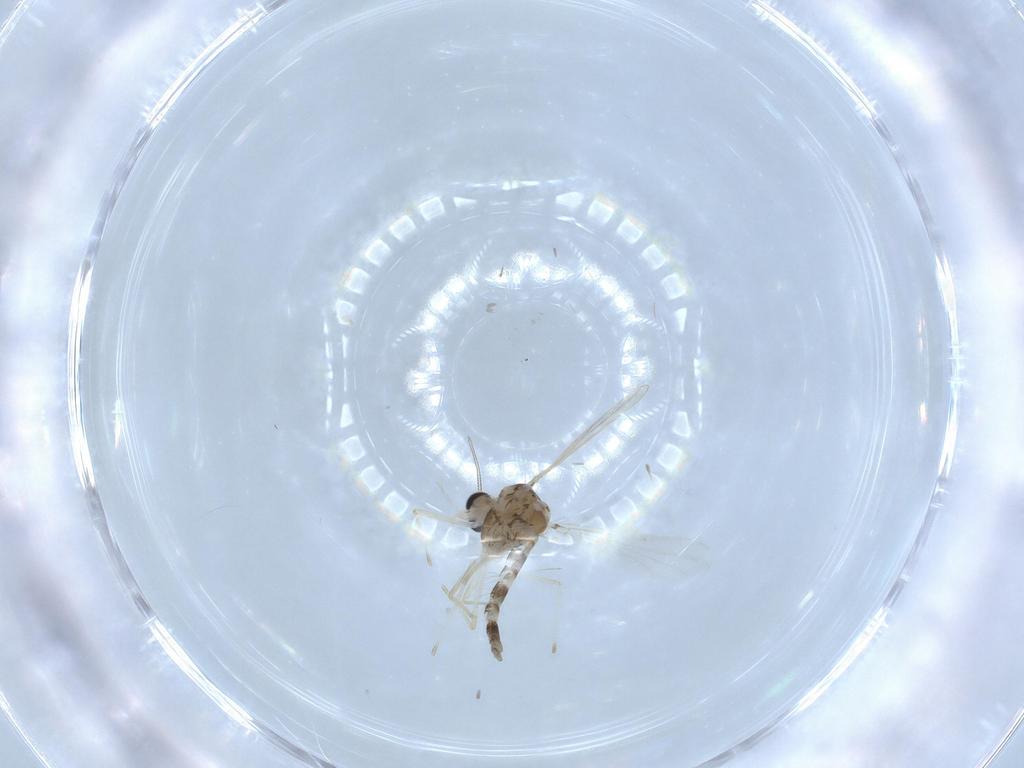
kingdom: Animalia
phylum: Arthropoda
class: Insecta
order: Diptera
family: Chironomidae
